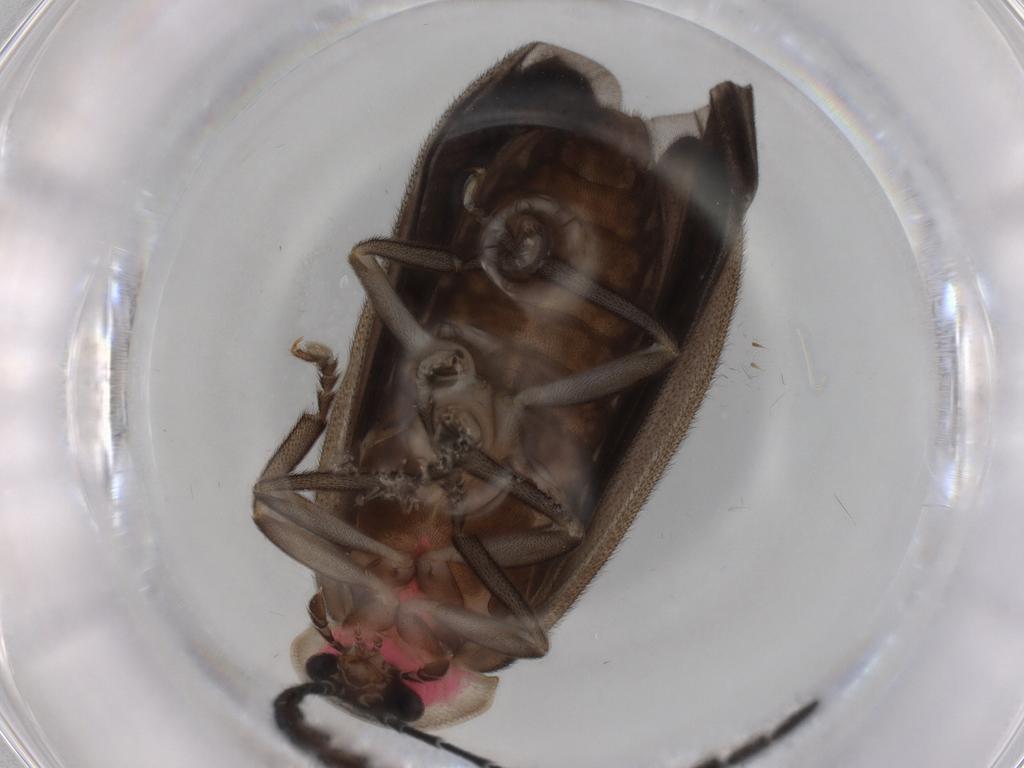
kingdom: Animalia
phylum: Arthropoda
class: Insecta
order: Coleoptera
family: Lampyridae
